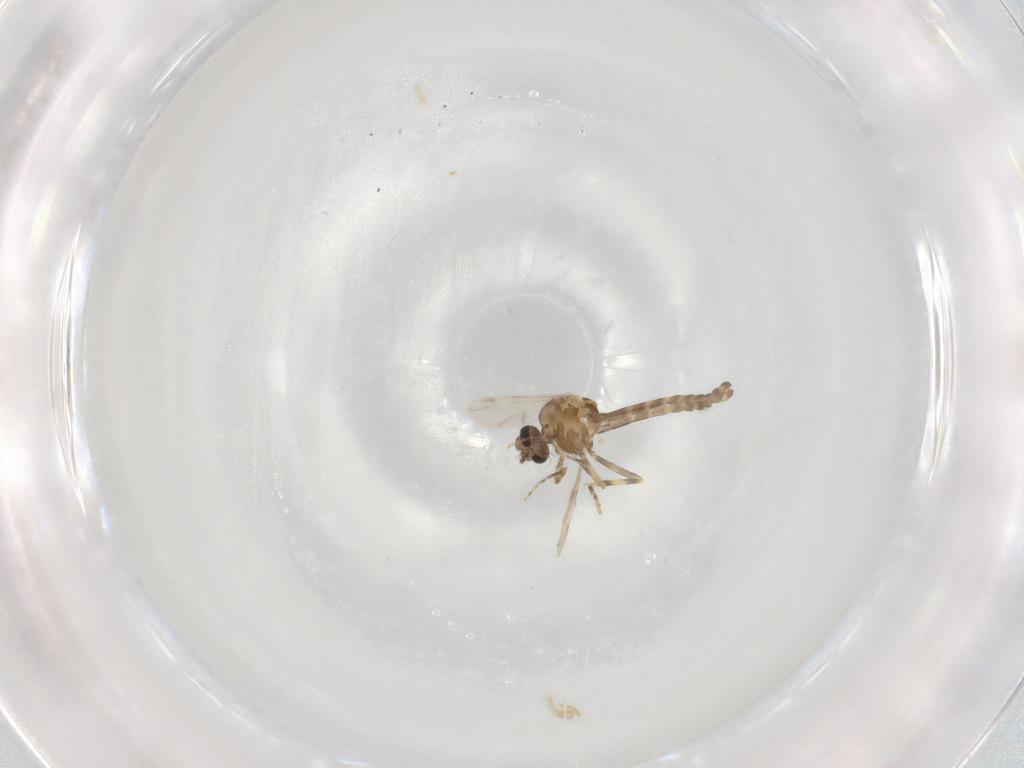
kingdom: Animalia
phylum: Arthropoda
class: Insecta
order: Diptera
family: Ceratopogonidae
